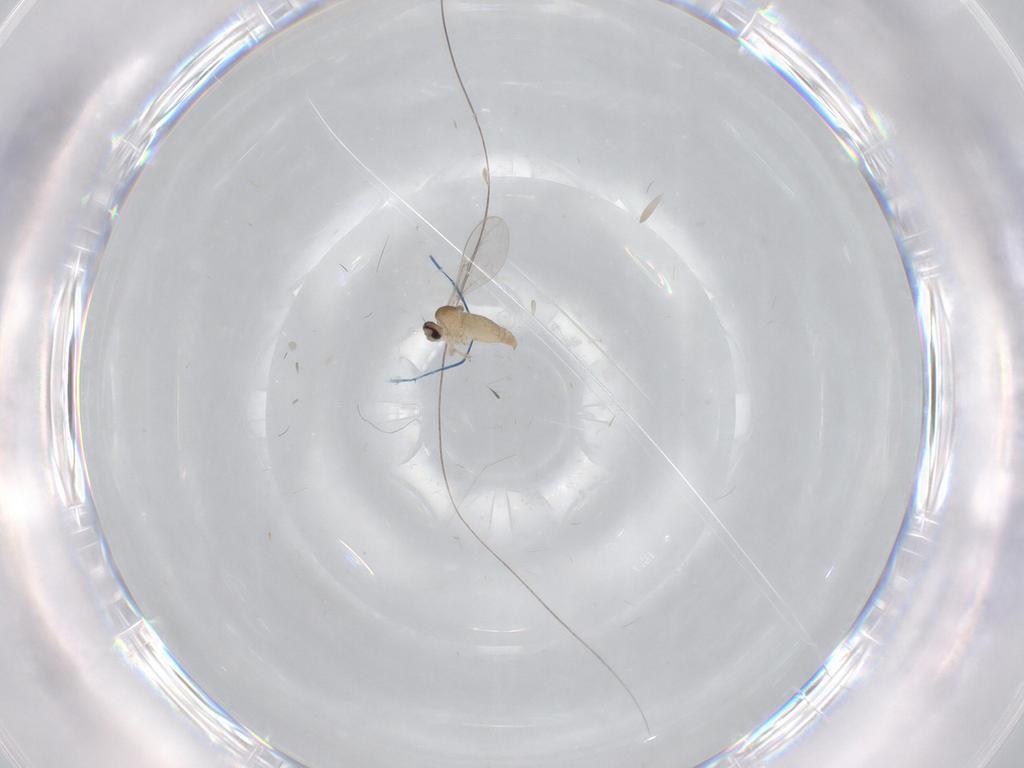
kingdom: Animalia
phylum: Arthropoda
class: Insecta
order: Diptera
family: Cecidomyiidae
